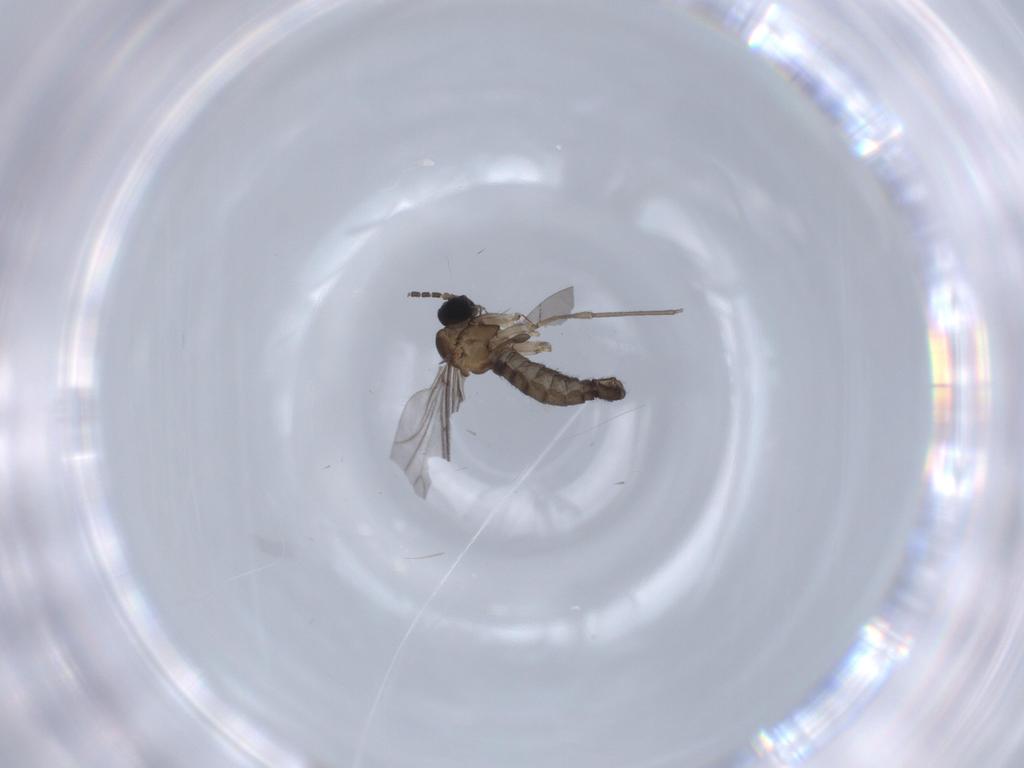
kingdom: Animalia
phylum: Arthropoda
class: Insecta
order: Diptera
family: Sciaridae
